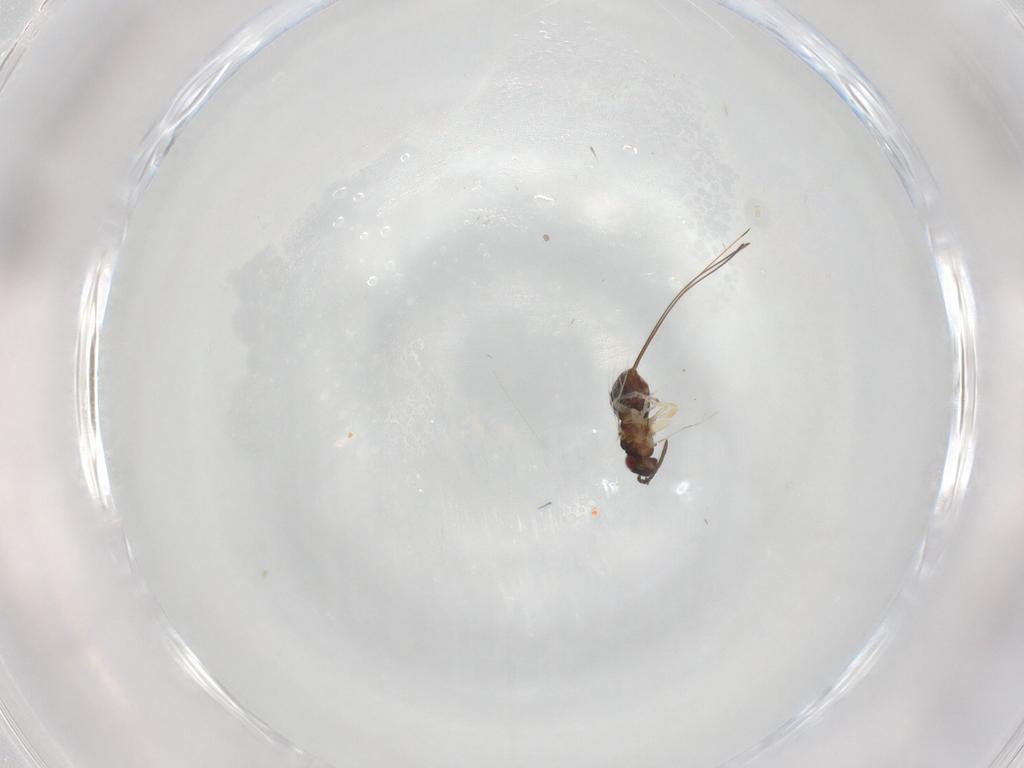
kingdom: Animalia
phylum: Arthropoda
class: Insecta
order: Hymenoptera
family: Pteromalidae
